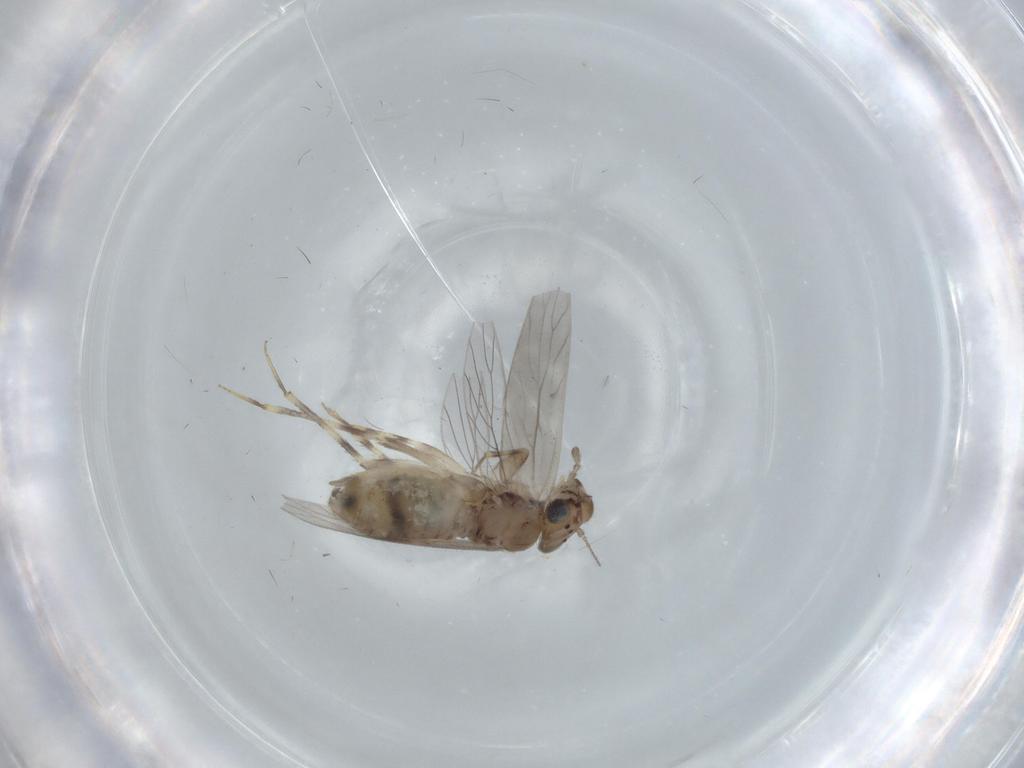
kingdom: Animalia
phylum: Arthropoda
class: Insecta
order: Psocodea
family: Lepidopsocidae
